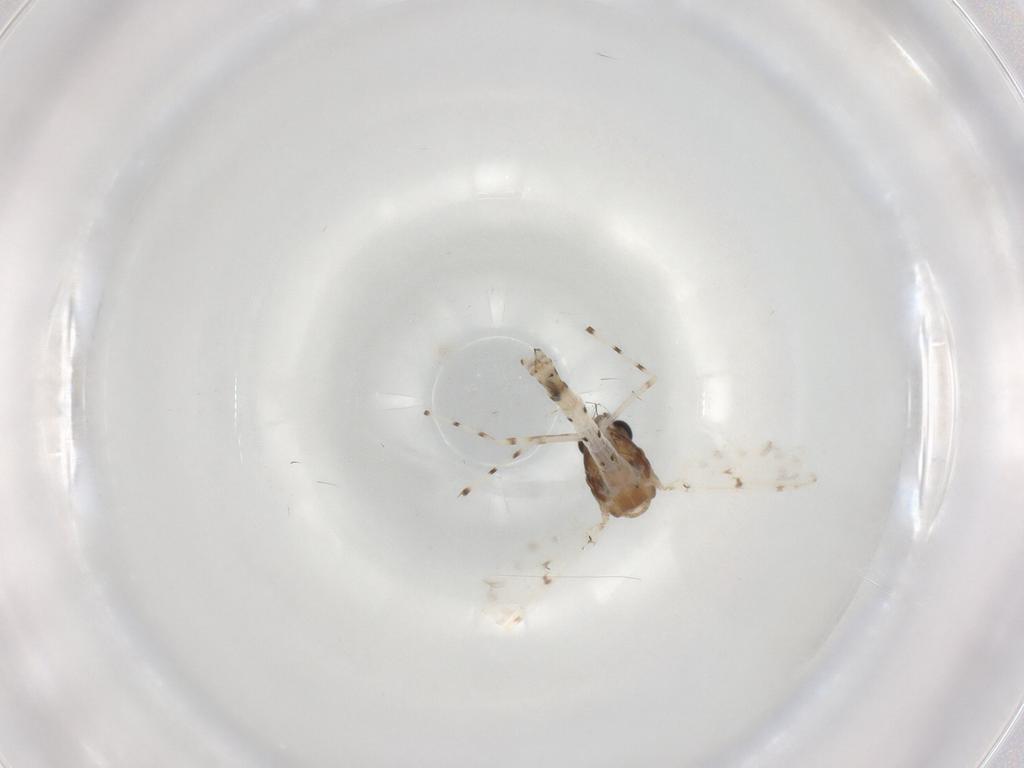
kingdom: Animalia
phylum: Arthropoda
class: Insecta
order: Diptera
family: Chironomidae
